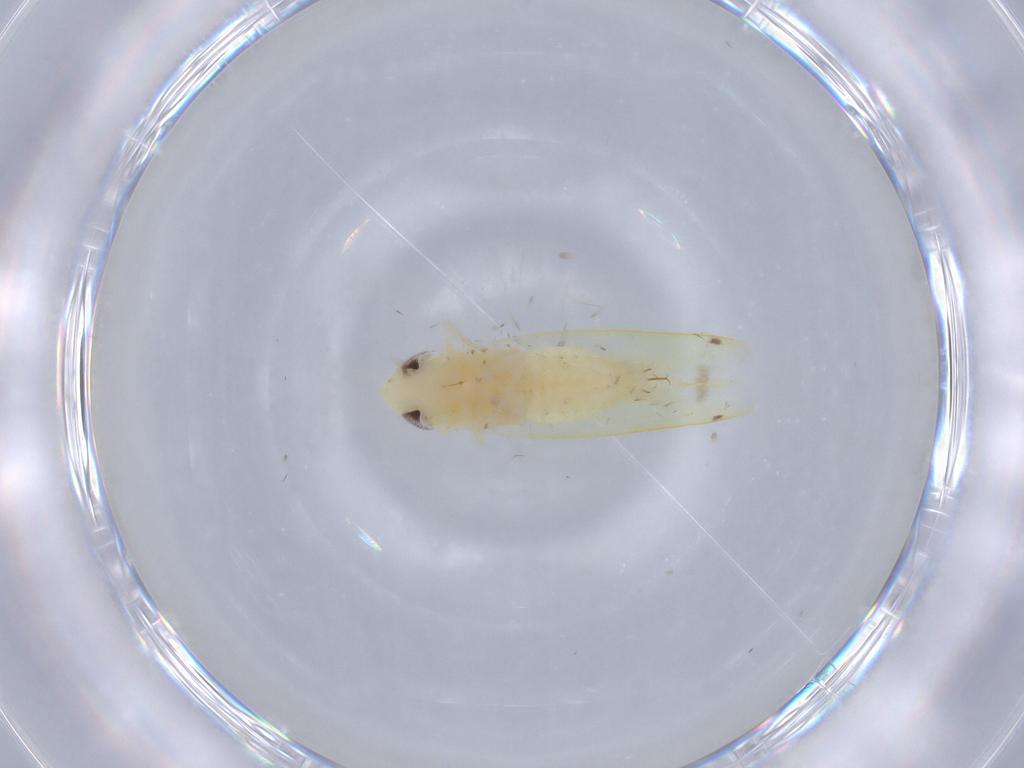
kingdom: Animalia
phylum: Arthropoda
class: Insecta
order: Hemiptera
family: Cicadellidae
